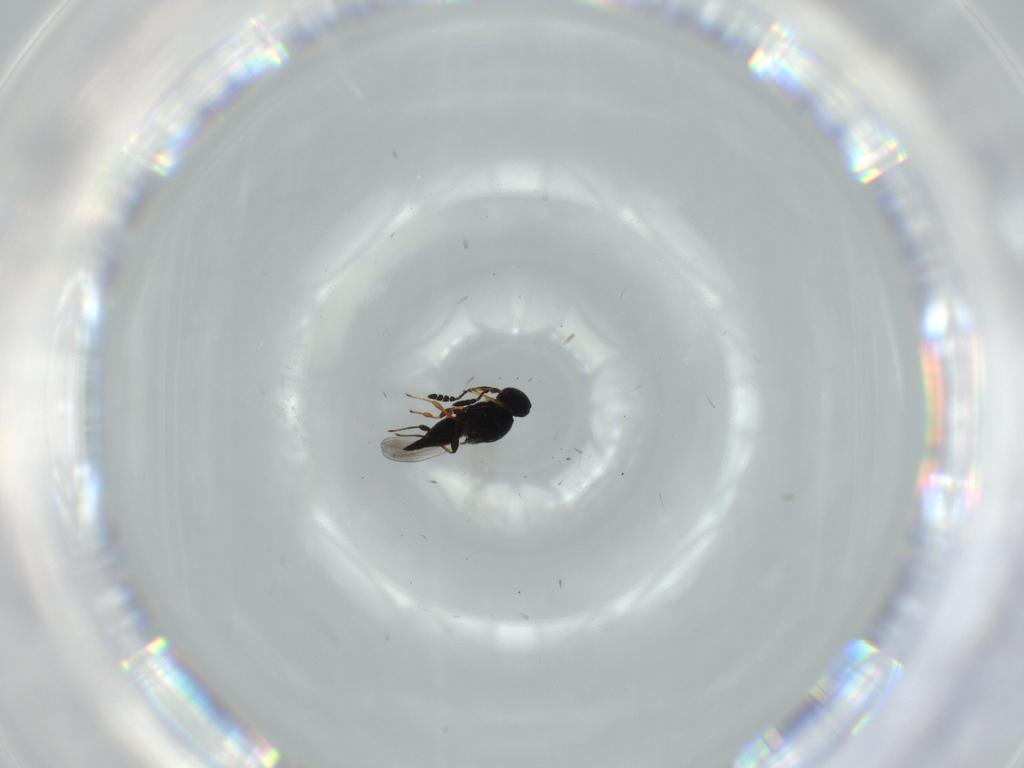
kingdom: Animalia
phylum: Arthropoda
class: Insecta
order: Hymenoptera
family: Platygastridae
